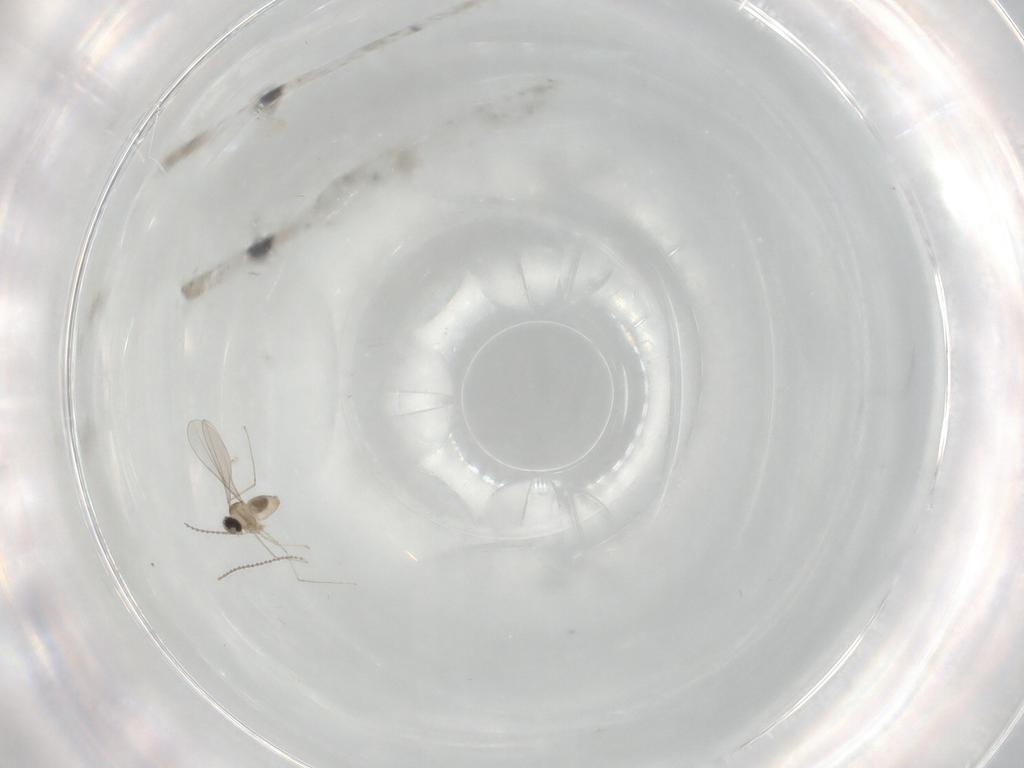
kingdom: Animalia
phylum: Arthropoda
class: Insecta
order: Diptera
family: Cecidomyiidae
